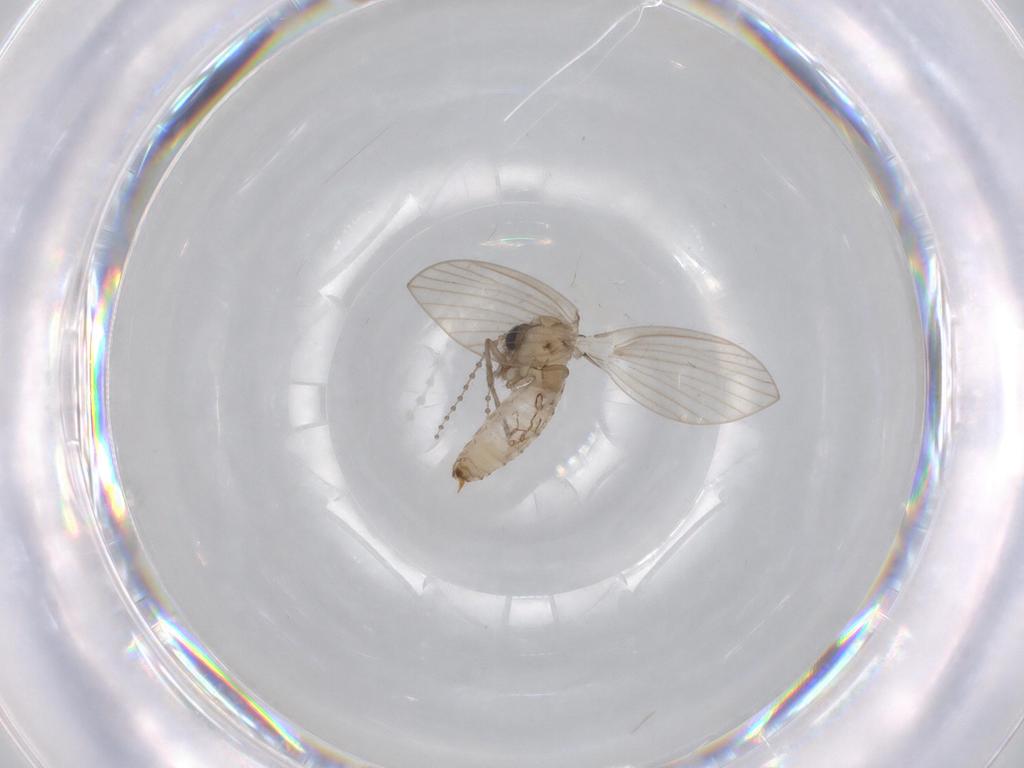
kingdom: Animalia
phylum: Arthropoda
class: Insecta
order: Diptera
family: Psychodidae
